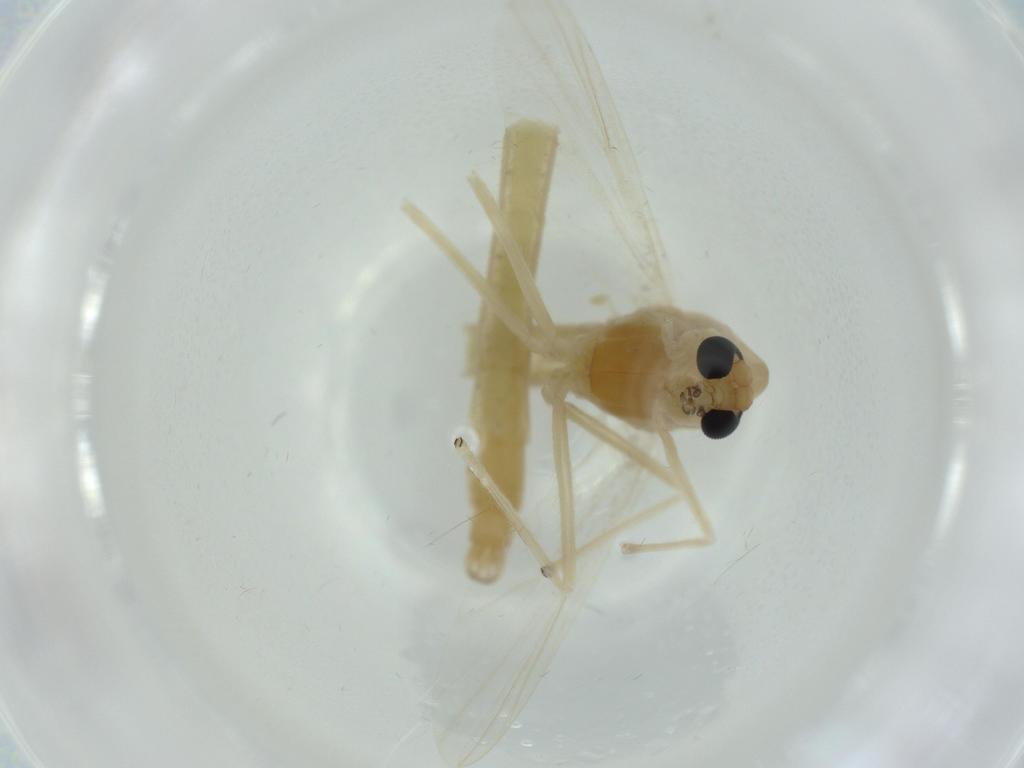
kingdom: Animalia
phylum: Arthropoda
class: Insecta
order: Diptera
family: Chironomidae
